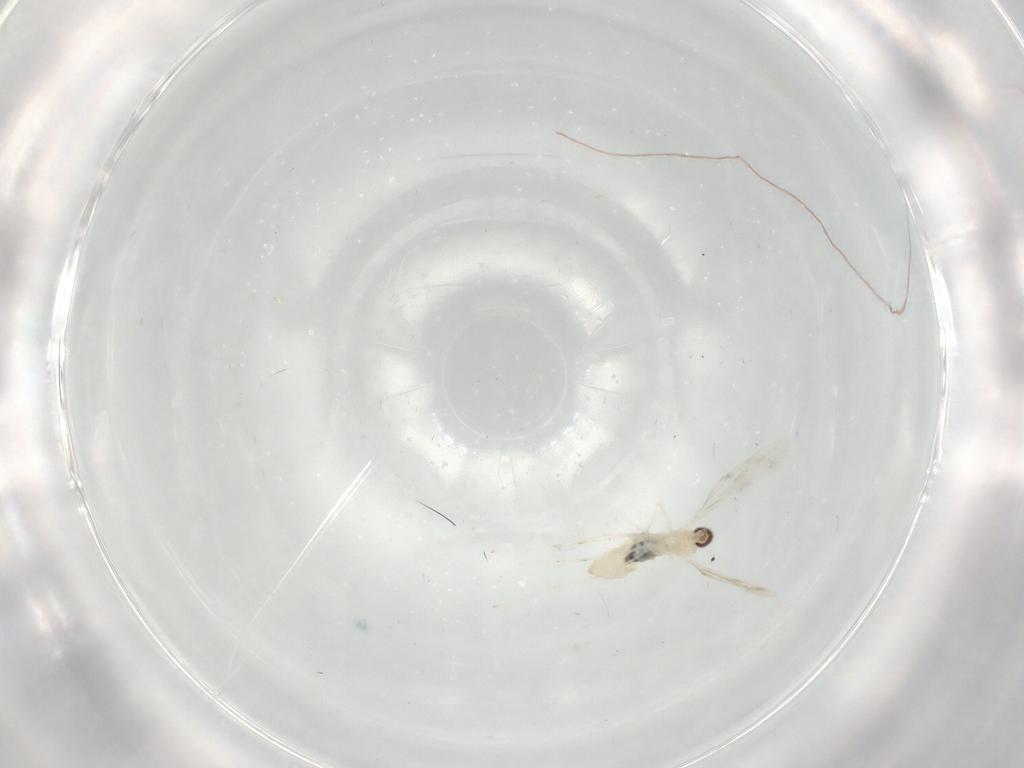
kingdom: Animalia
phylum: Arthropoda
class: Insecta
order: Diptera
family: Cecidomyiidae
